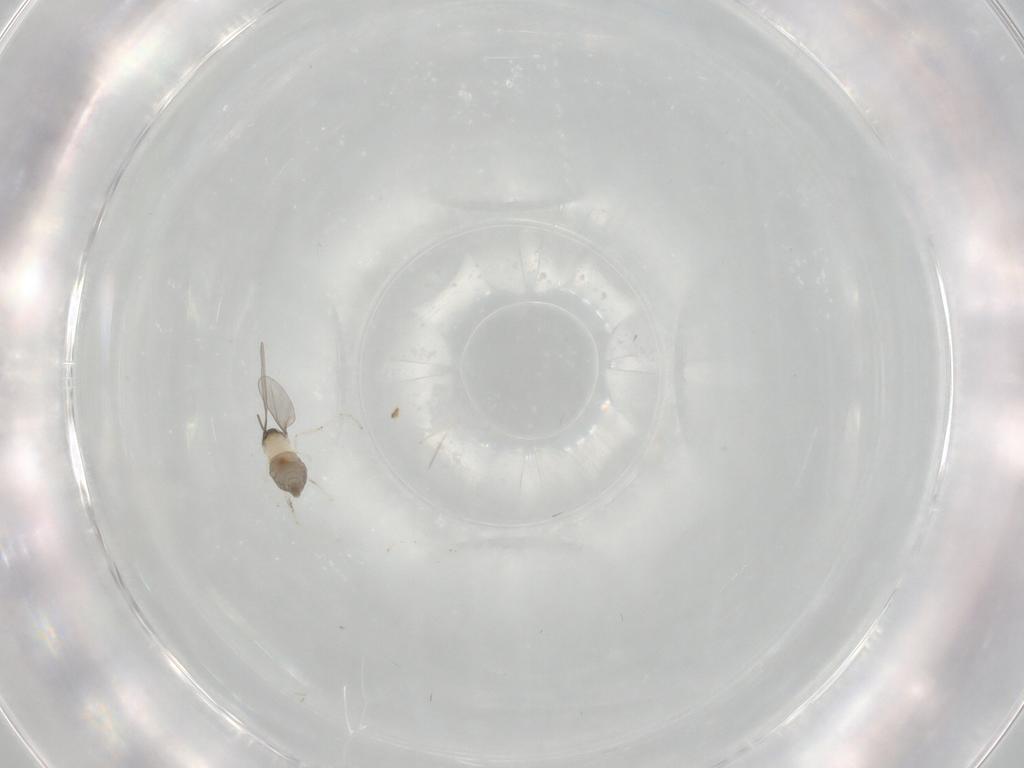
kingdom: Animalia
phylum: Arthropoda
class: Insecta
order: Diptera
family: Cecidomyiidae
